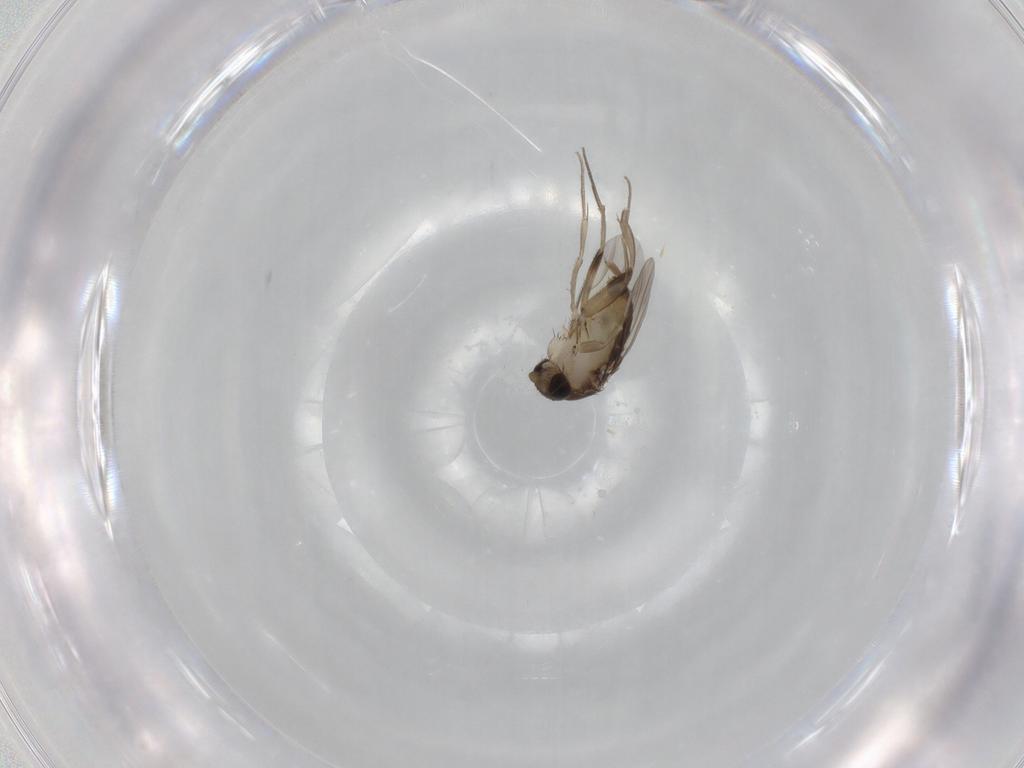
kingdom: Animalia
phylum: Arthropoda
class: Insecta
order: Diptera
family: Phoridae
